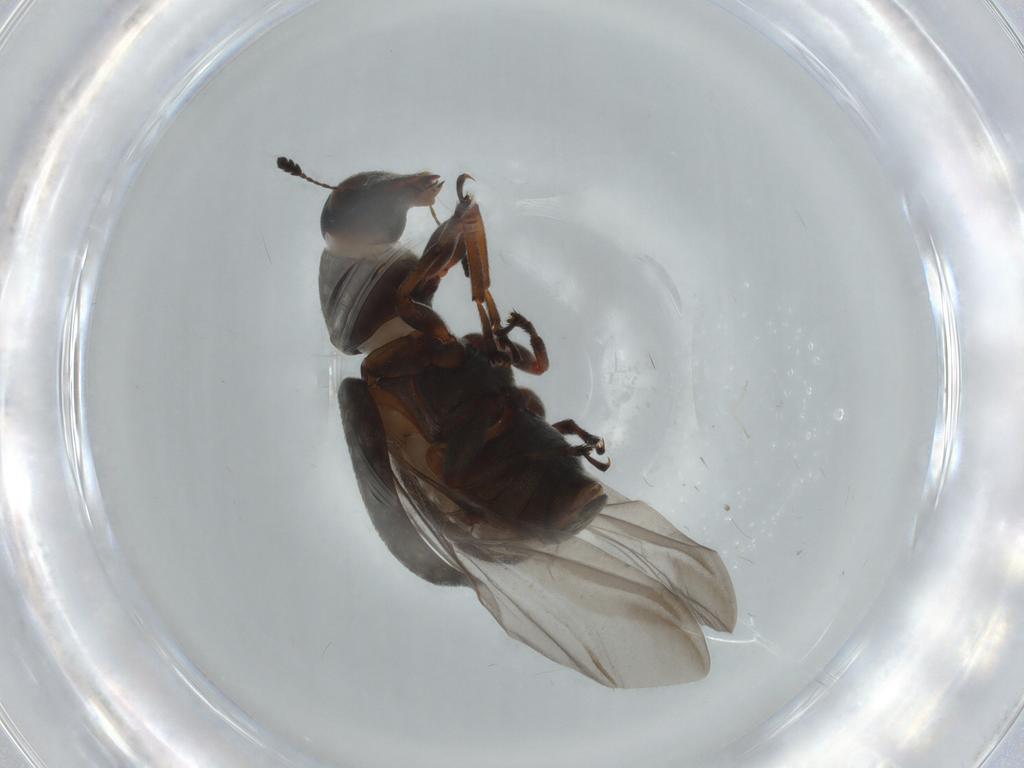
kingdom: Animalia
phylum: Arthropoda
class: Insecta
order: Coleoptera
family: Anthribidae
